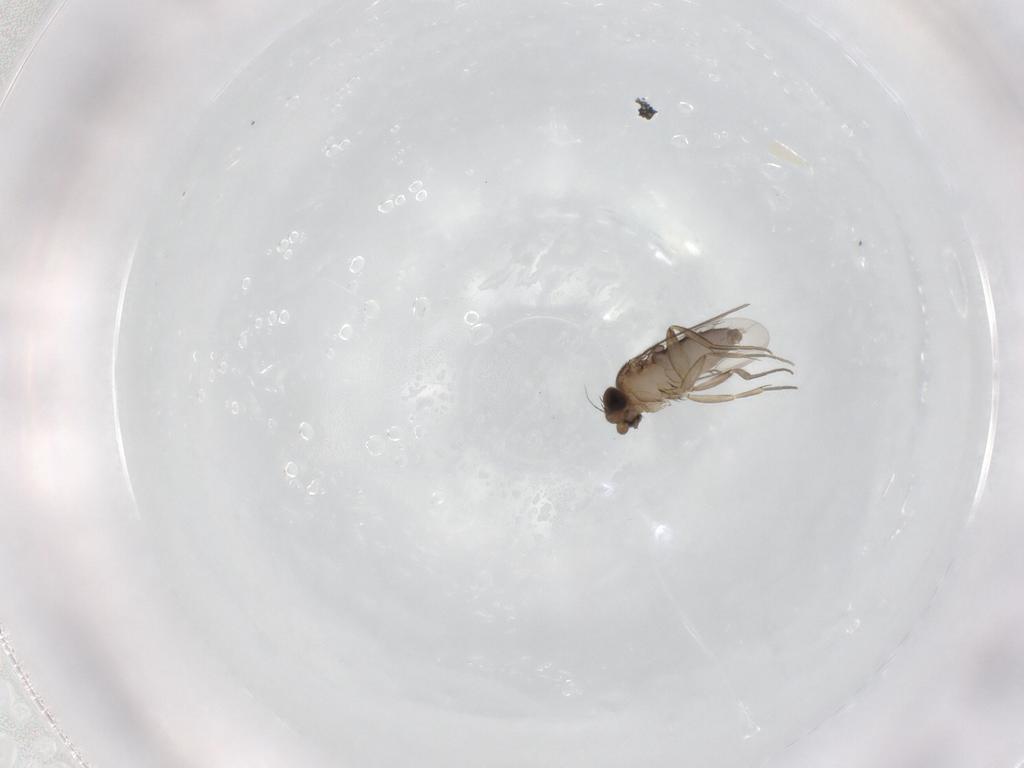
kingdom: Animalia
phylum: Arthropoda
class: Insecta
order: Diptera
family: Phoridae
